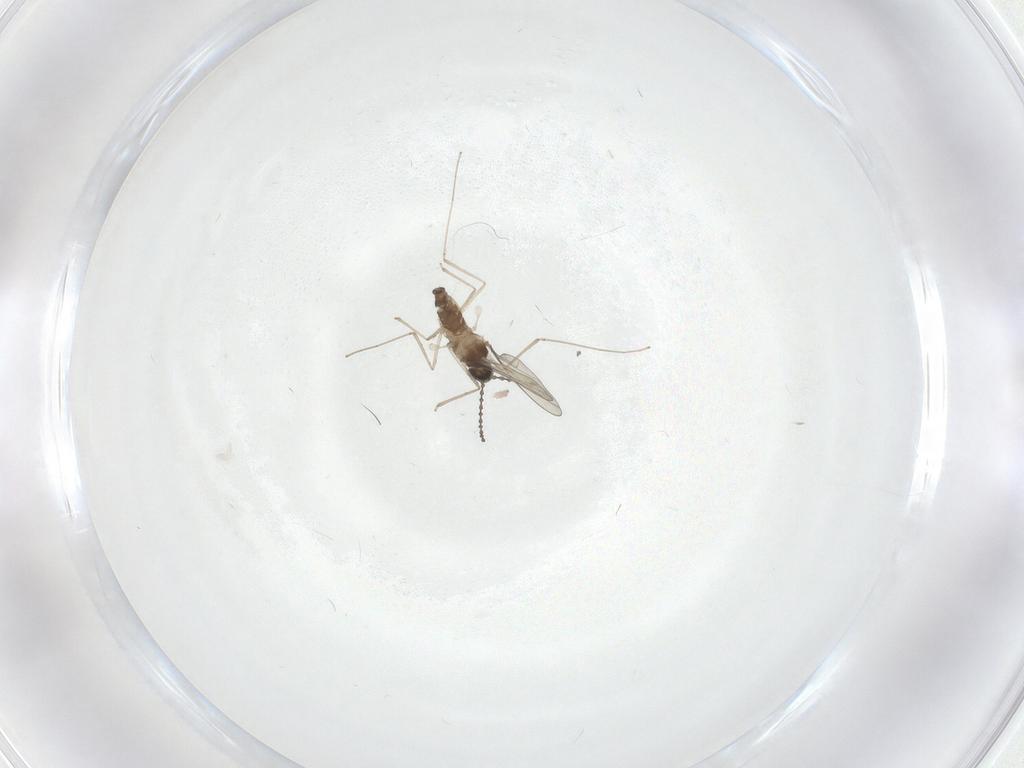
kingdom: Animalia
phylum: Arthropoda
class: Insecta
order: Diptera
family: Cecidomyiidae
